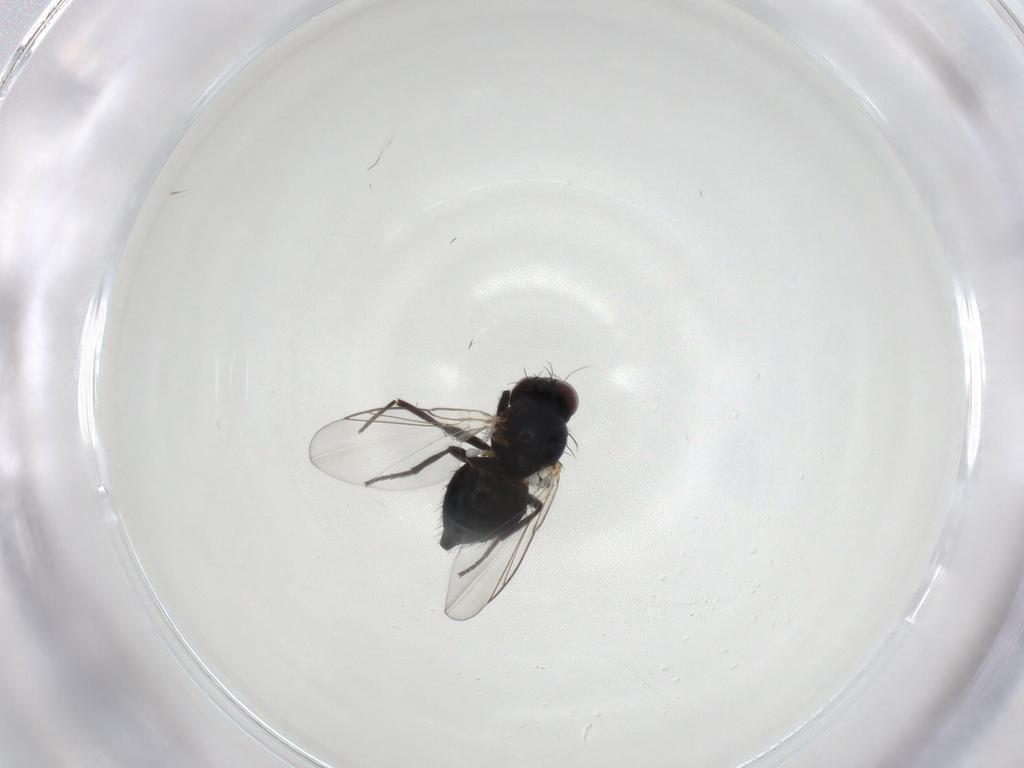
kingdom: Animalia
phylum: Arthropoda
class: Insecta
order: Diptera
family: Agromyzidae
